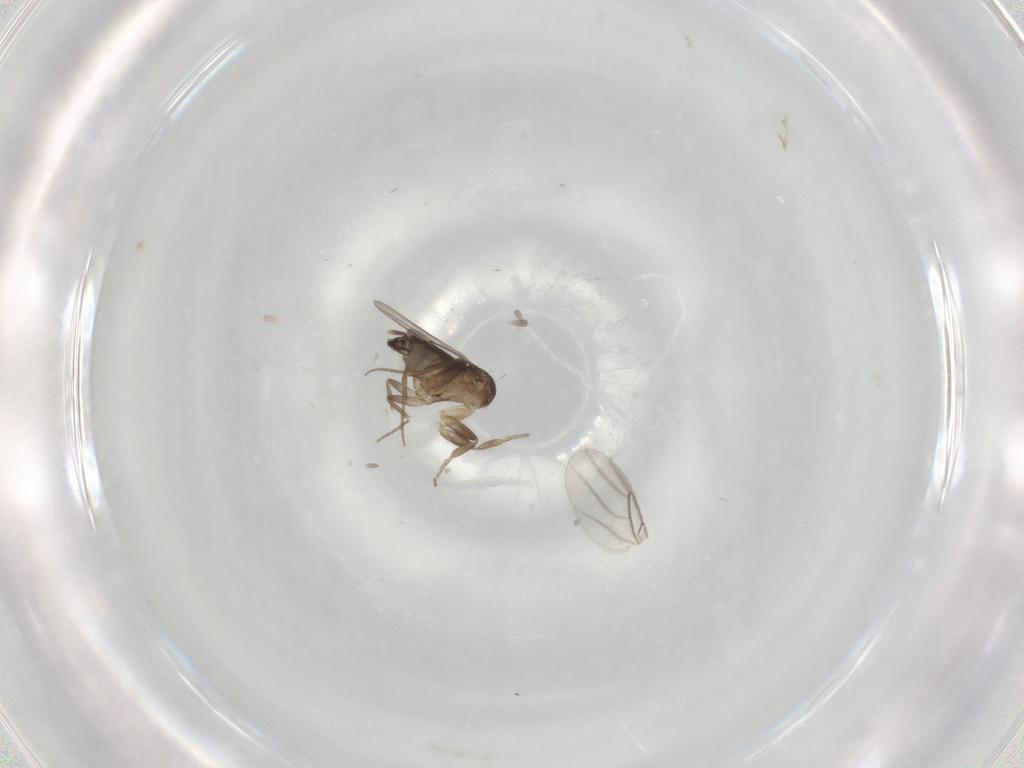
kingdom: Animalia
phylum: Arthropoda
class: Insecta
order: Diptera
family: Phoridae
